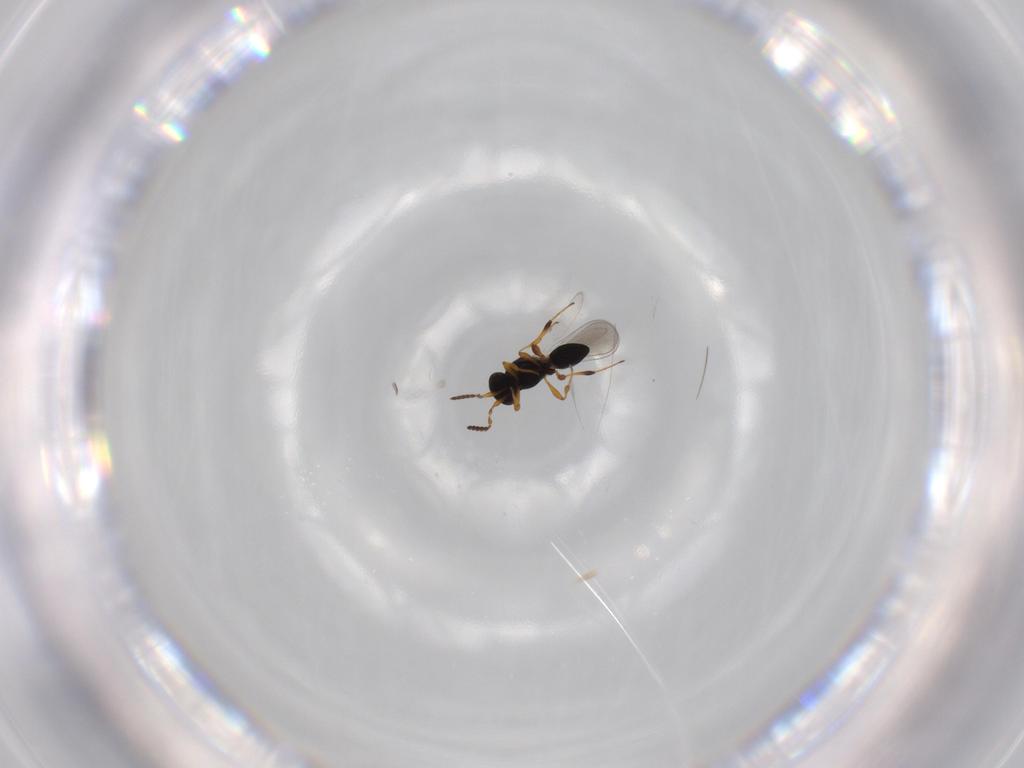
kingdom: Animalia
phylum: Arthropoda
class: Insecta
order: Hymenoptera
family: Platygastridae
